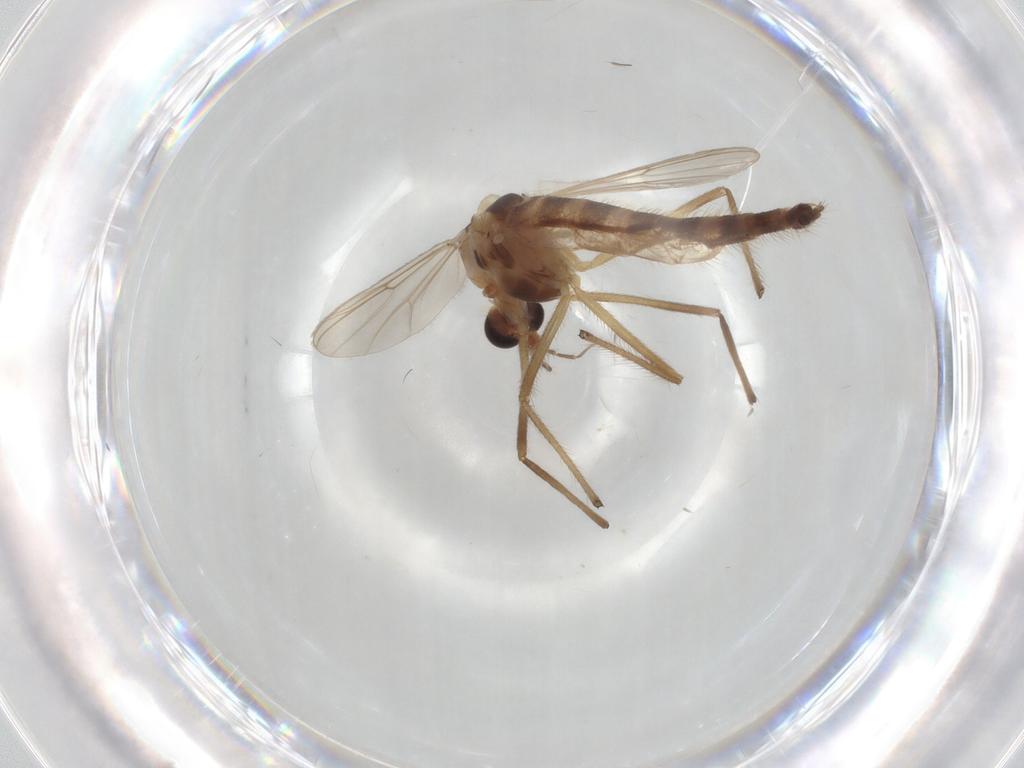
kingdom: Animalia
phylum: Arthropoda
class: Insecta
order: Diptera
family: Chironomidae
